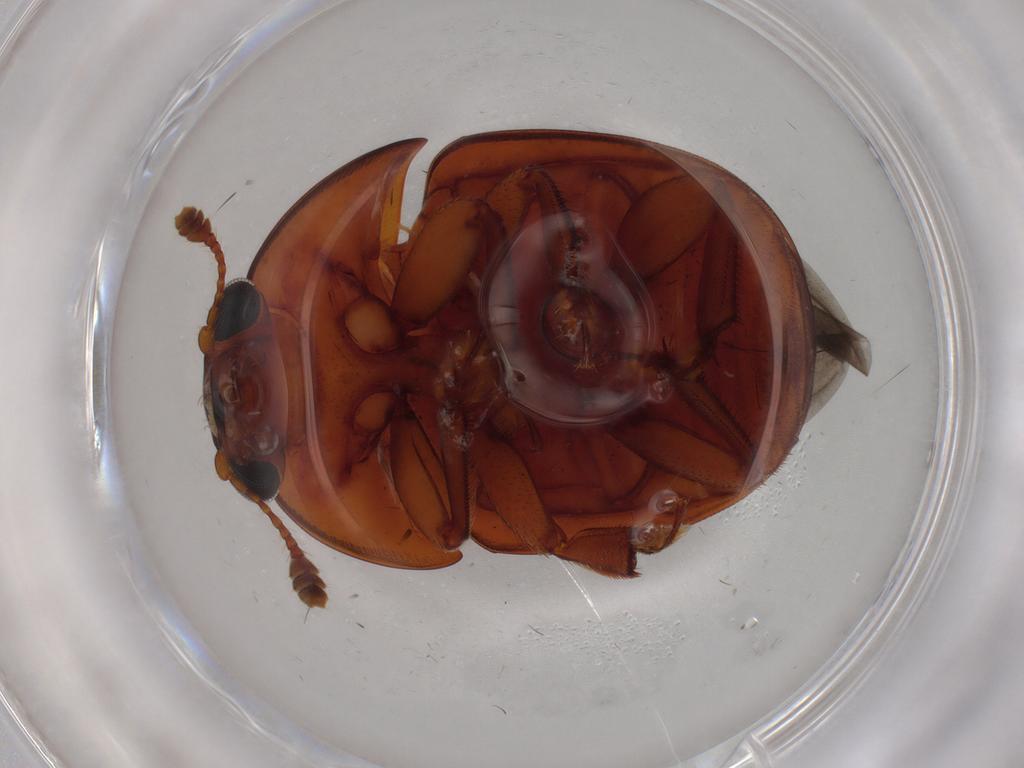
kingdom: Animalia
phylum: Arthropoda
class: Insecta
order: Coleoptera
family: Nitidulidae
